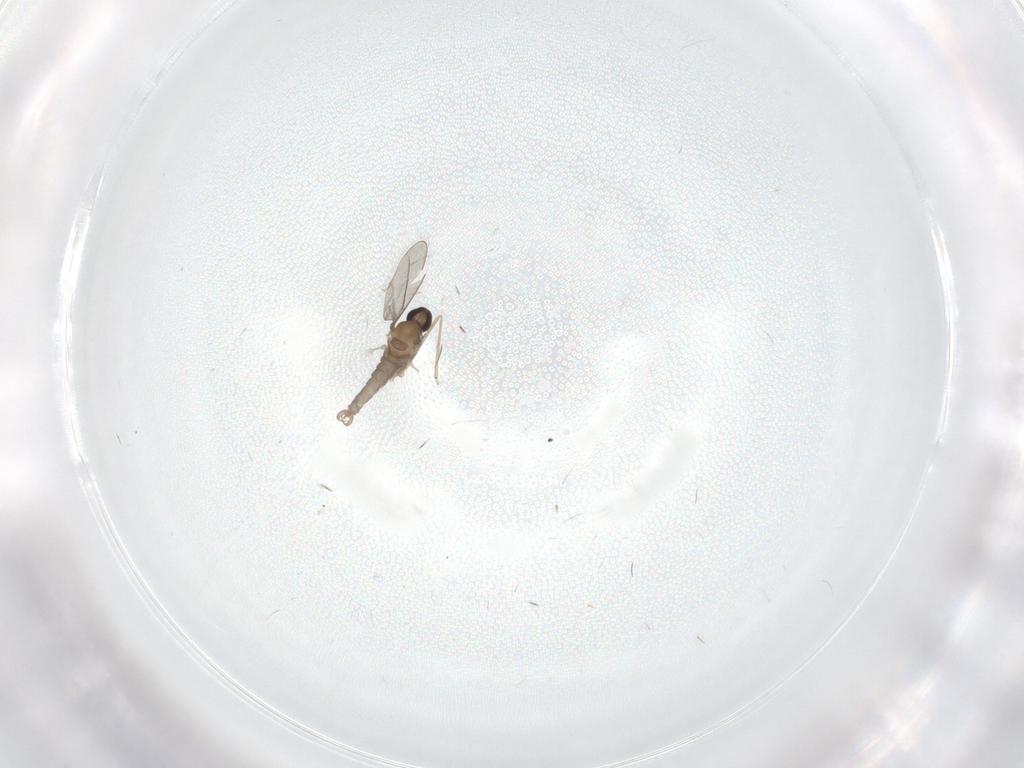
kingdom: Animalia
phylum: Arthropoda
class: Insecta
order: Diptera
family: Cecidomyiidae
